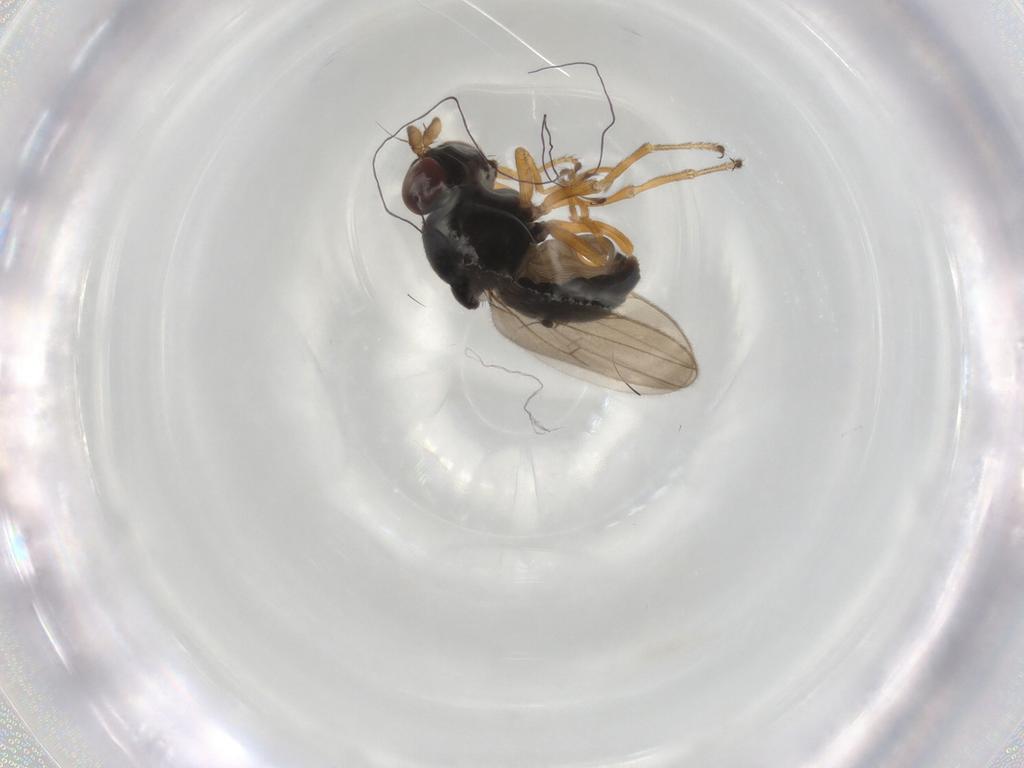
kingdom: Animalia
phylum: Arthropoda
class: Insecta
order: Diptera
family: Ephydridae
